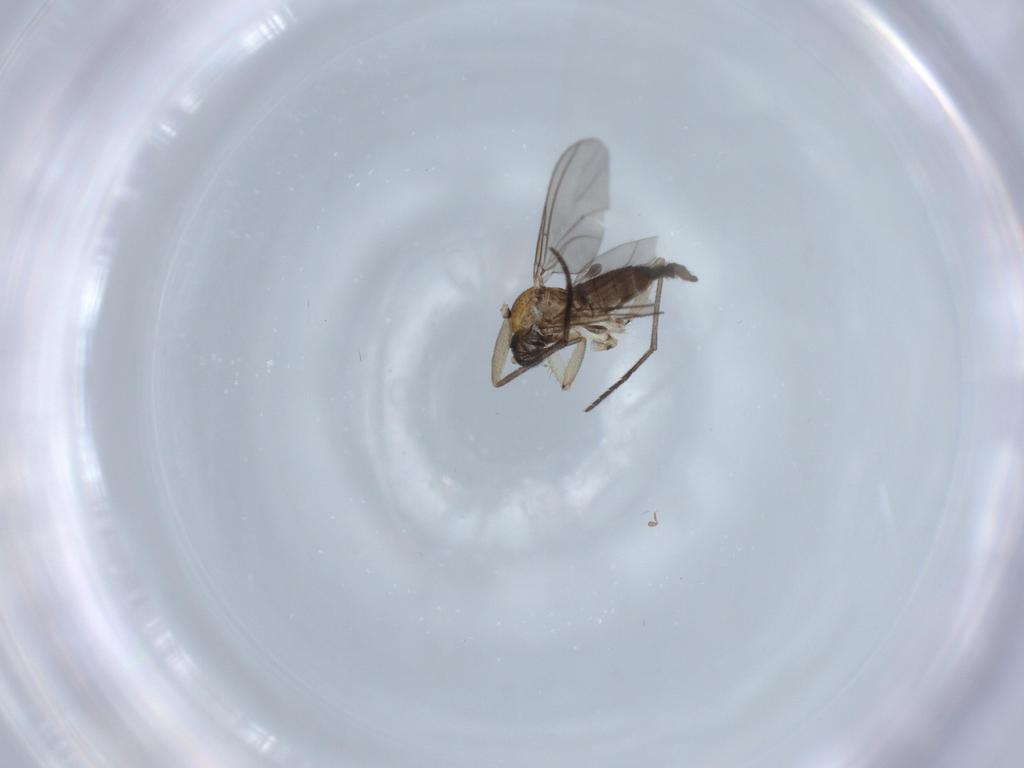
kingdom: Animalia
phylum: Arthropoda
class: Insecta
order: Diptera
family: Sciaridae
